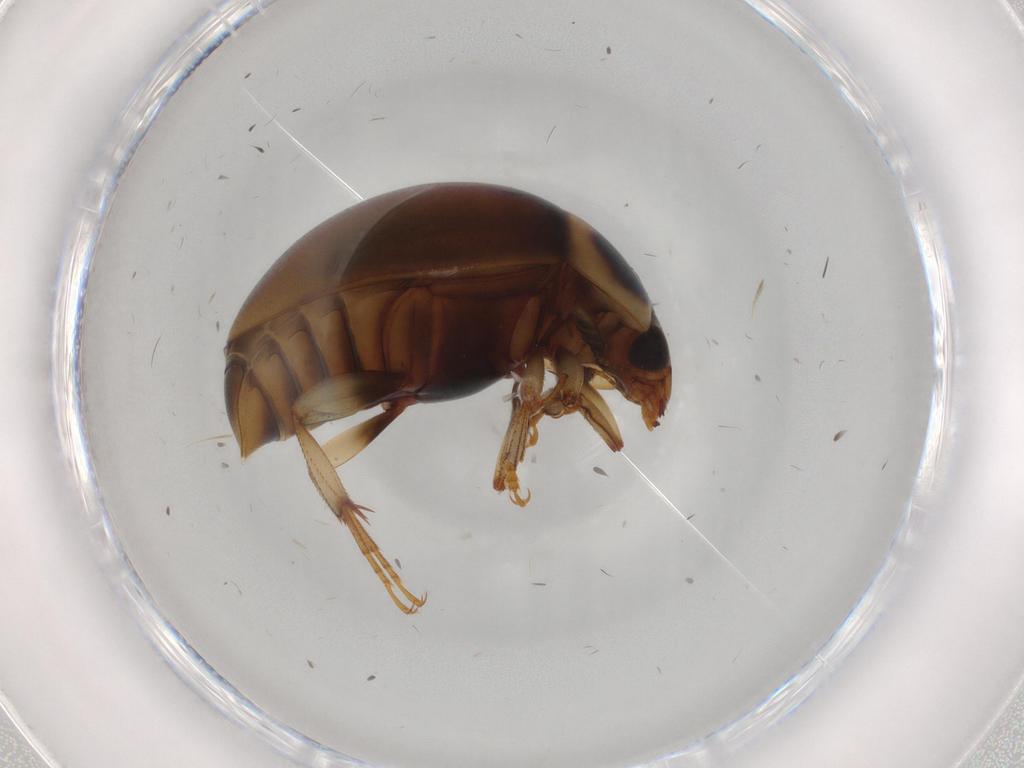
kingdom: Animalia
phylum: Arthropoda
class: Insecta
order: Coleoptera
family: Nitidulidae
